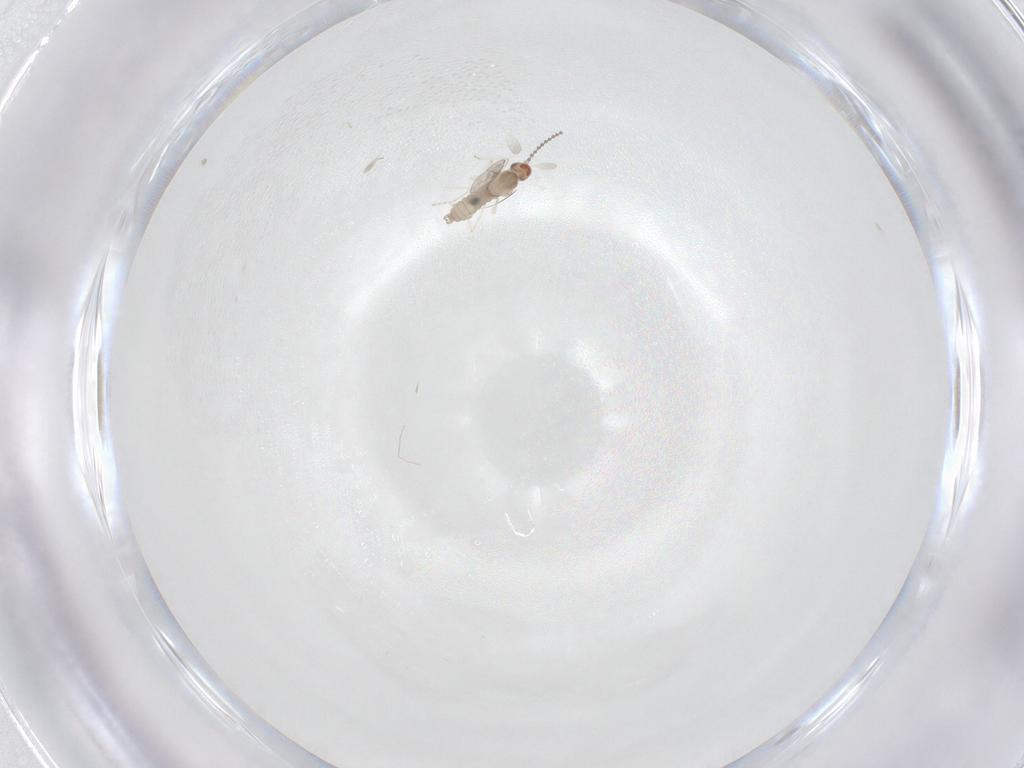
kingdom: Animalia
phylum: Arthropoda
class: Insecta
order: Diptera
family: Cecidomyiidae
